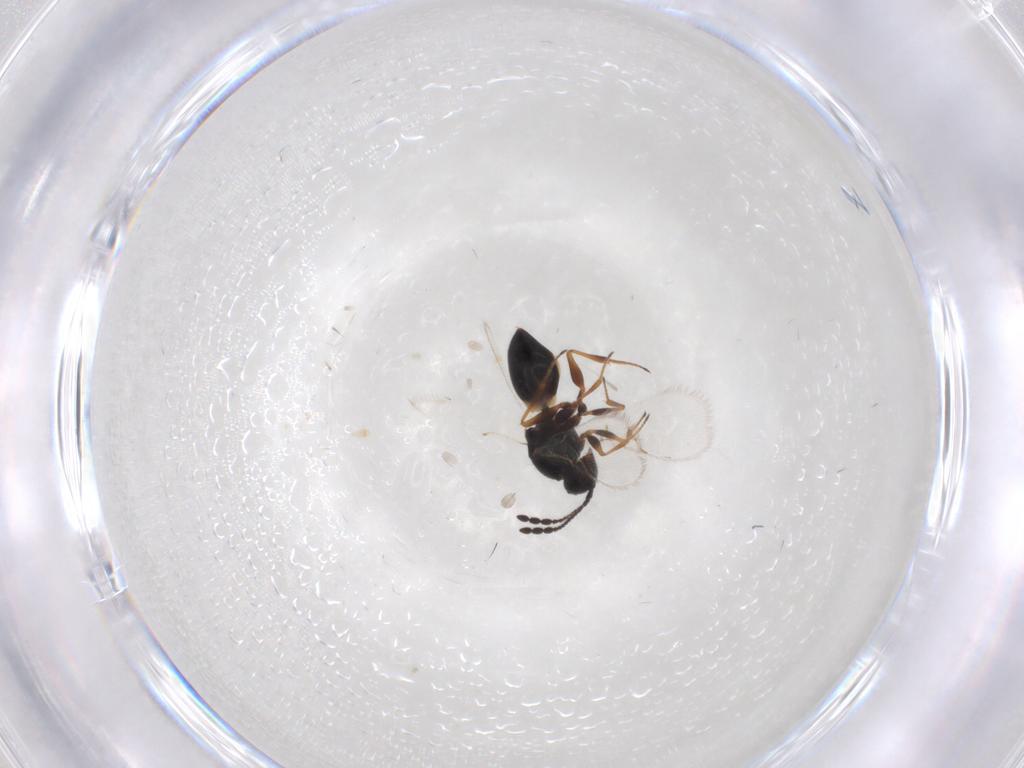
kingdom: Animalia
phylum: Arthropoda
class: Insecta
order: Hymenoptera
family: Figitidae
